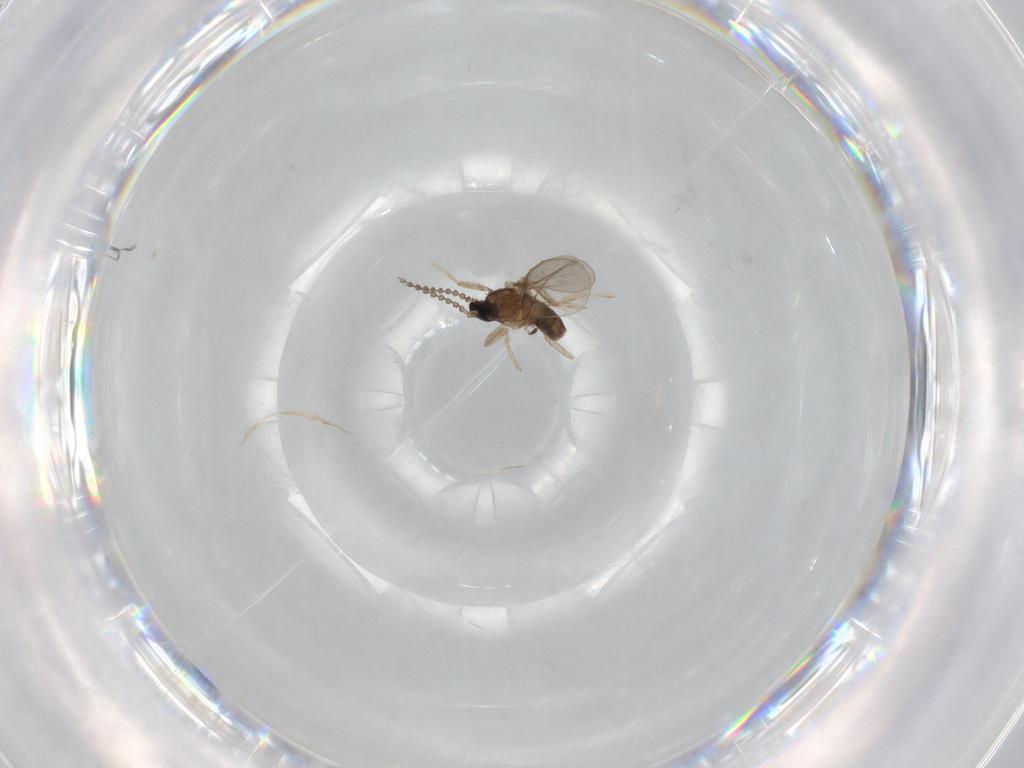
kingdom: Animalia
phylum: Arthropoda
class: Insecta
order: Diptera
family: Cecidomyiidae
